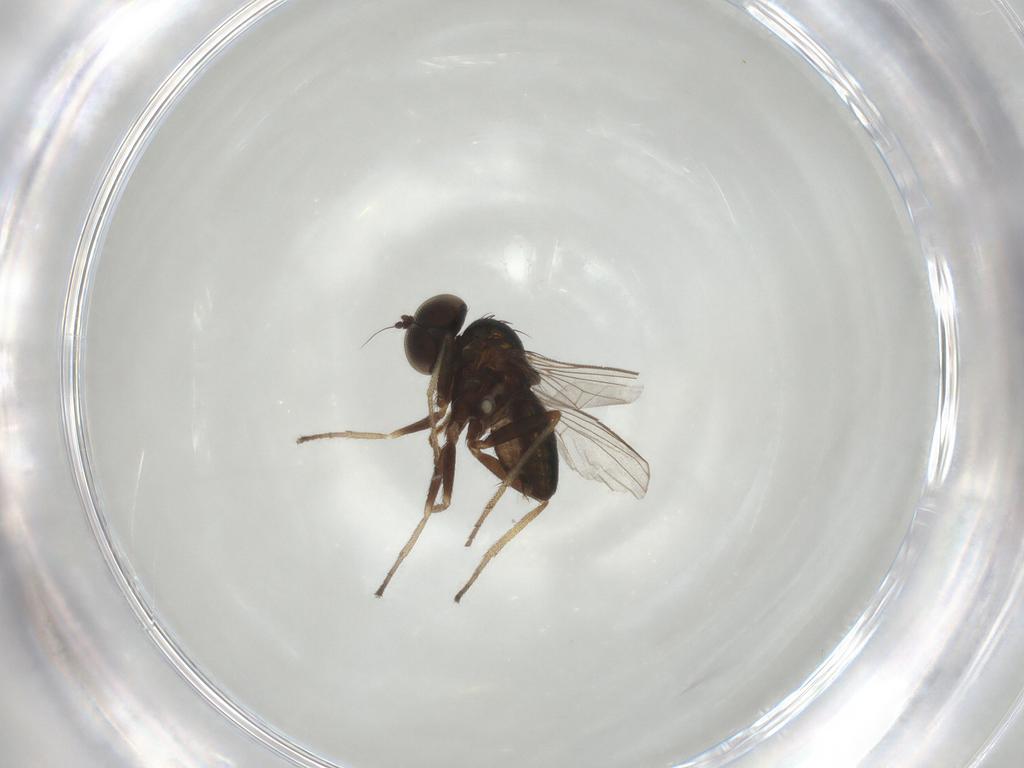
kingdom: Animalia
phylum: Arthropoda
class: Insecta
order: Diptera
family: Dolichopodidae
